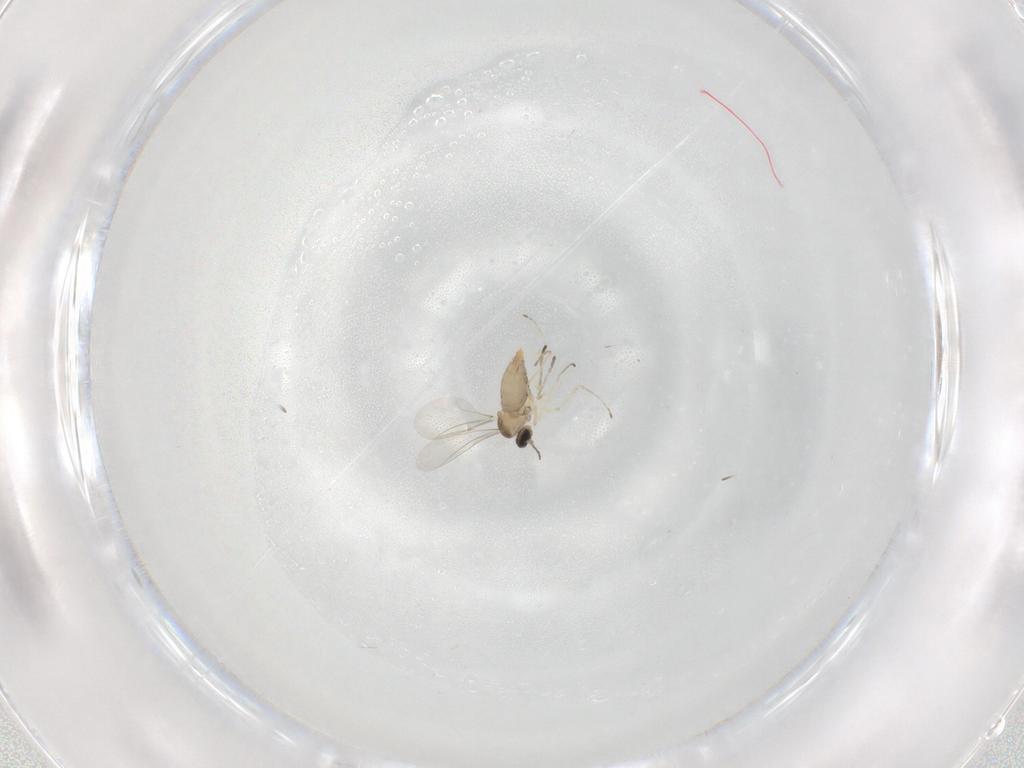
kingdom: Animalia
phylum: Arthropoda
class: Insecta
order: Diptera
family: Cecidomyiidae
